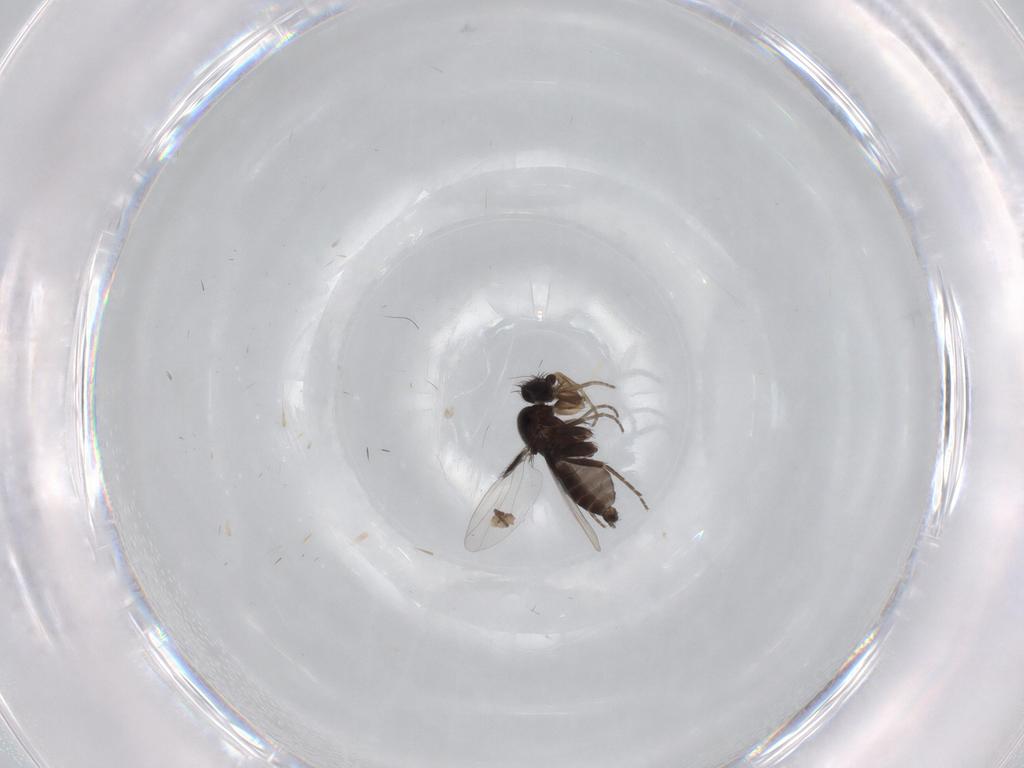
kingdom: Animalia
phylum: Arthropoda
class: Insecta
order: Diptera
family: Phoridae
